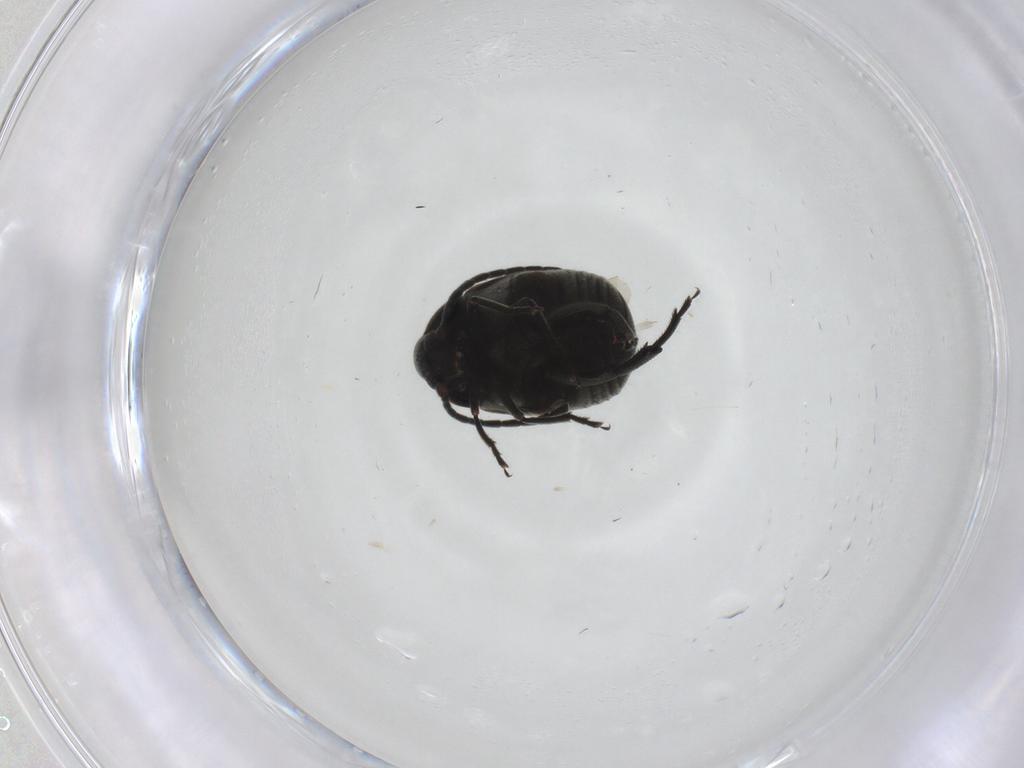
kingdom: Animalia
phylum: Arthropoda
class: Insecta
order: Coleoptera
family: Chrysomelidae
